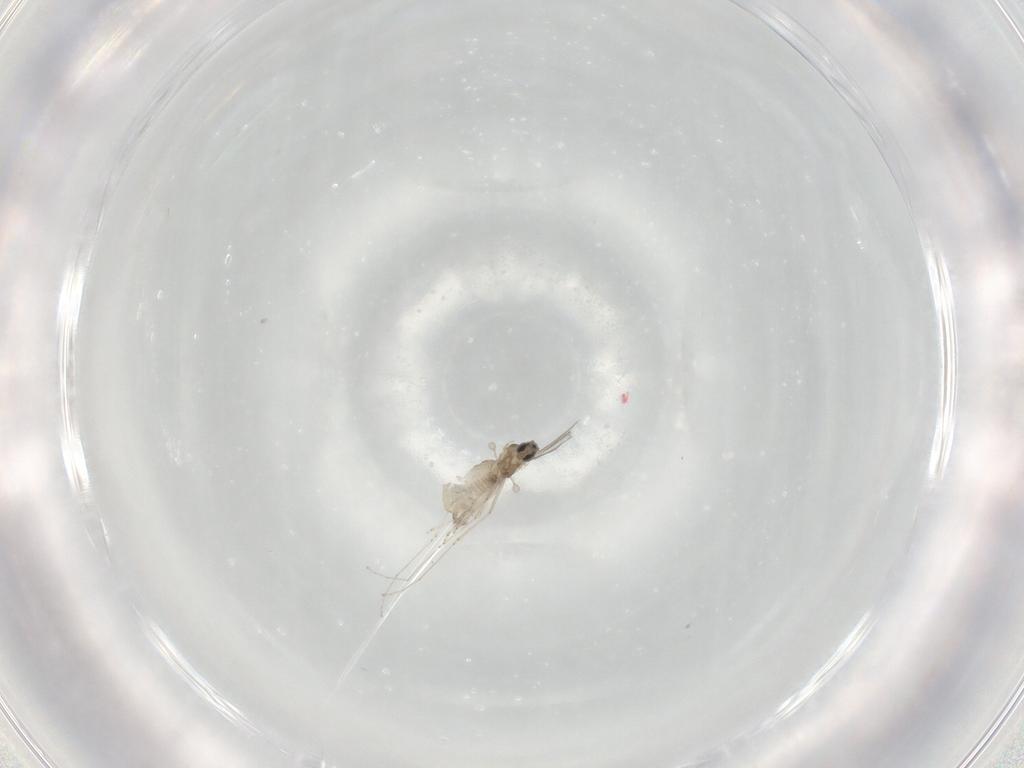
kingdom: Animalia
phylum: Arthropoda
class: Insecta
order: Diptera
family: Cecidomyiidae
